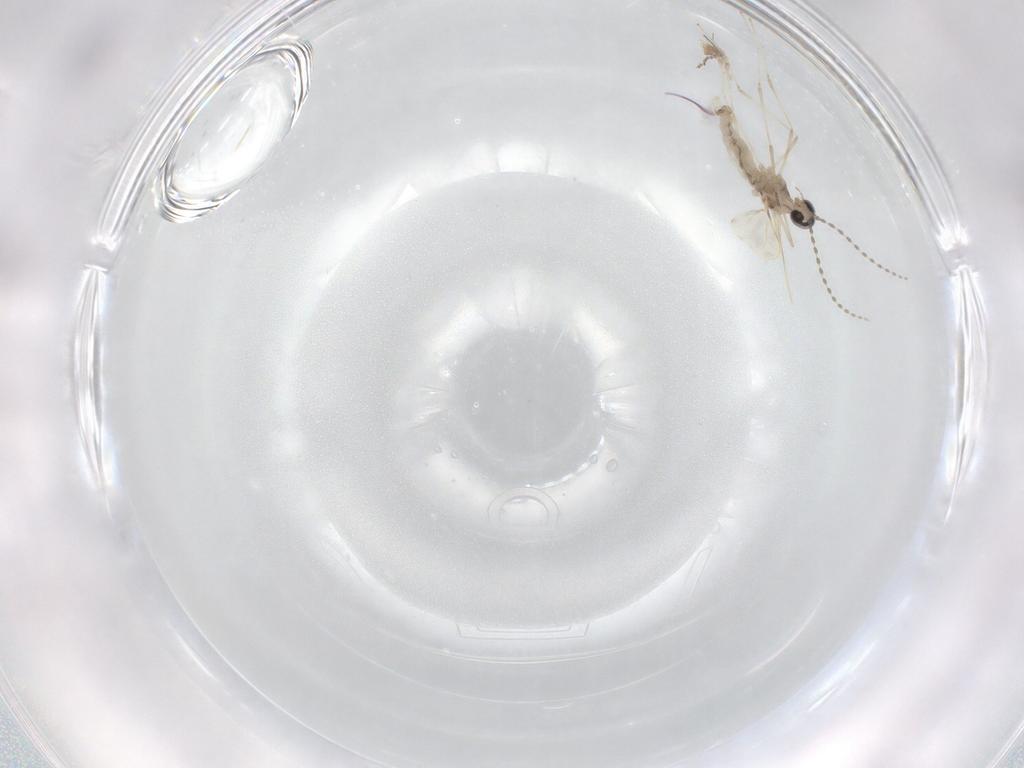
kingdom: Animalia
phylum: Arthropoda
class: Insecta
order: Diptera
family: Cecidomyiidae
